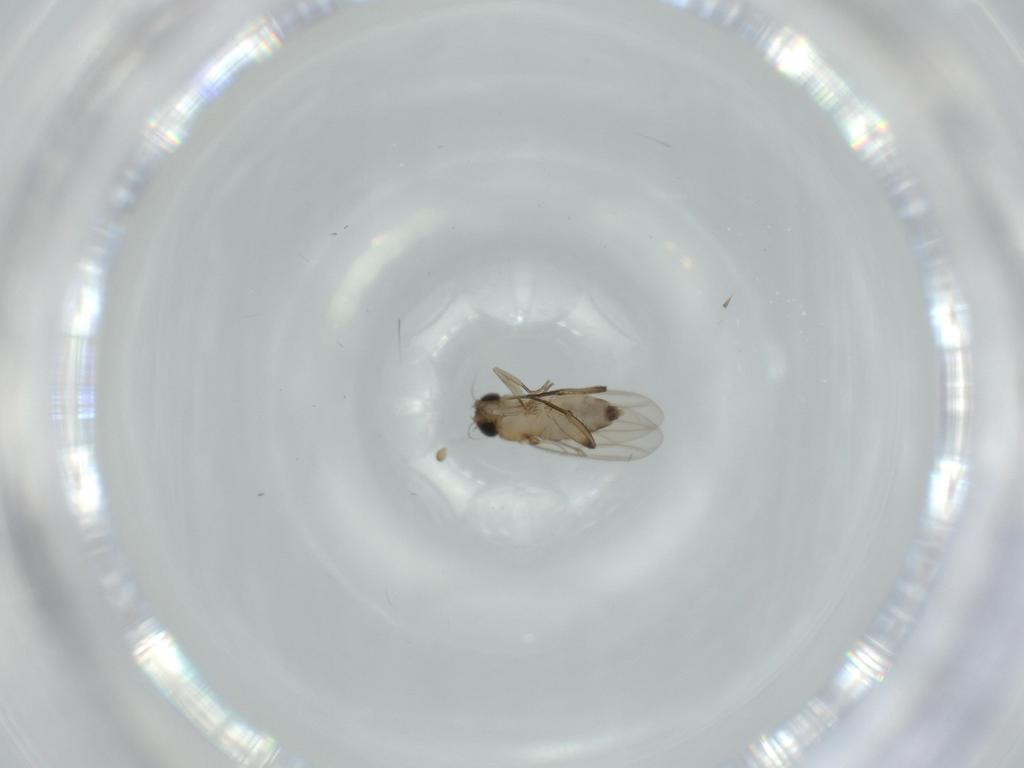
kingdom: Animalia
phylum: Arthropoda
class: Insecta
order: Diptera
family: Phoridae
